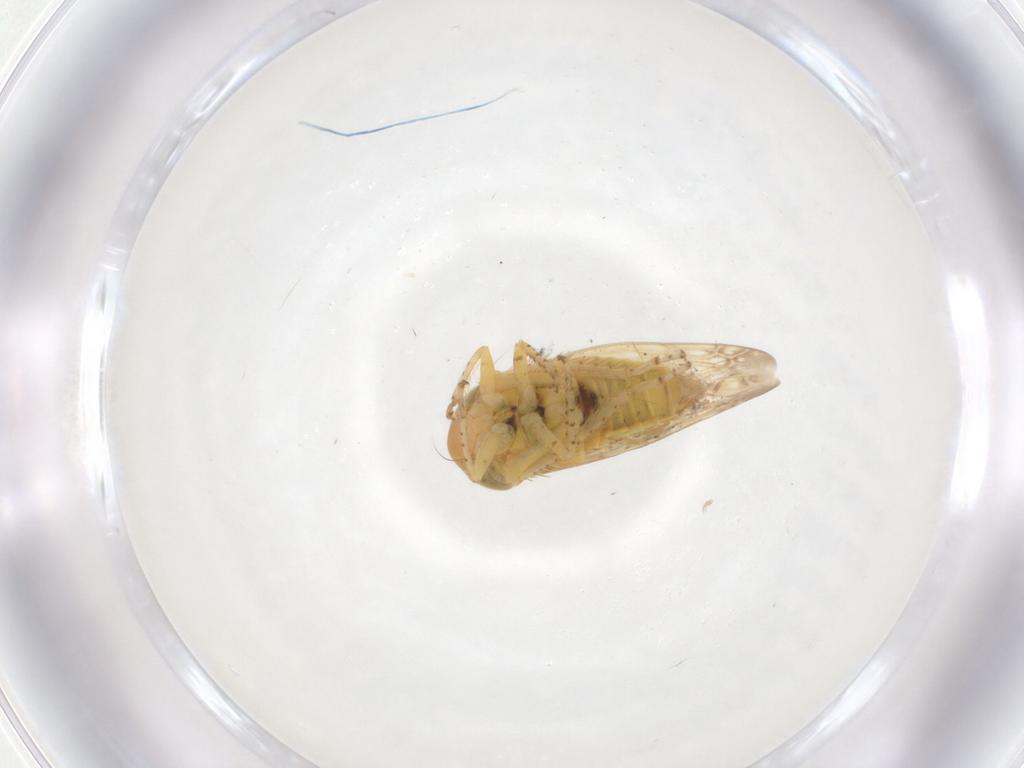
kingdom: Animalia
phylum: Arthropoda
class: Insecta
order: Hemiptera
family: Cicadellidae
